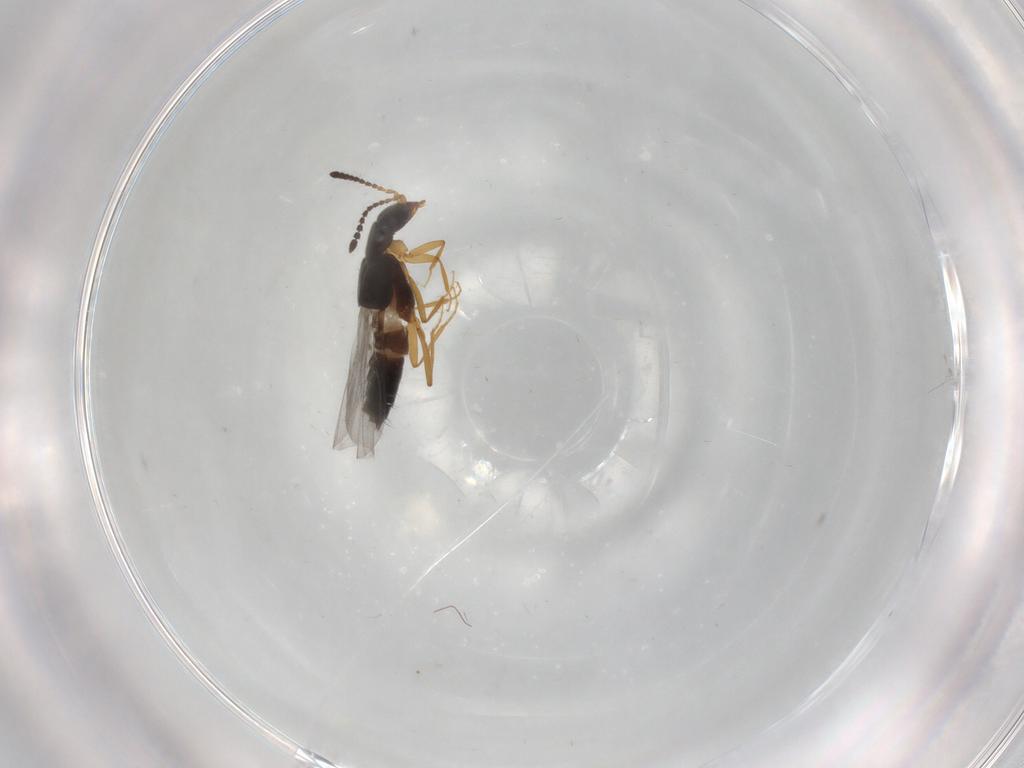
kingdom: Animalia
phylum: Arthropoda
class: Insecta
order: Coleoptera
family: Staphylinidae
